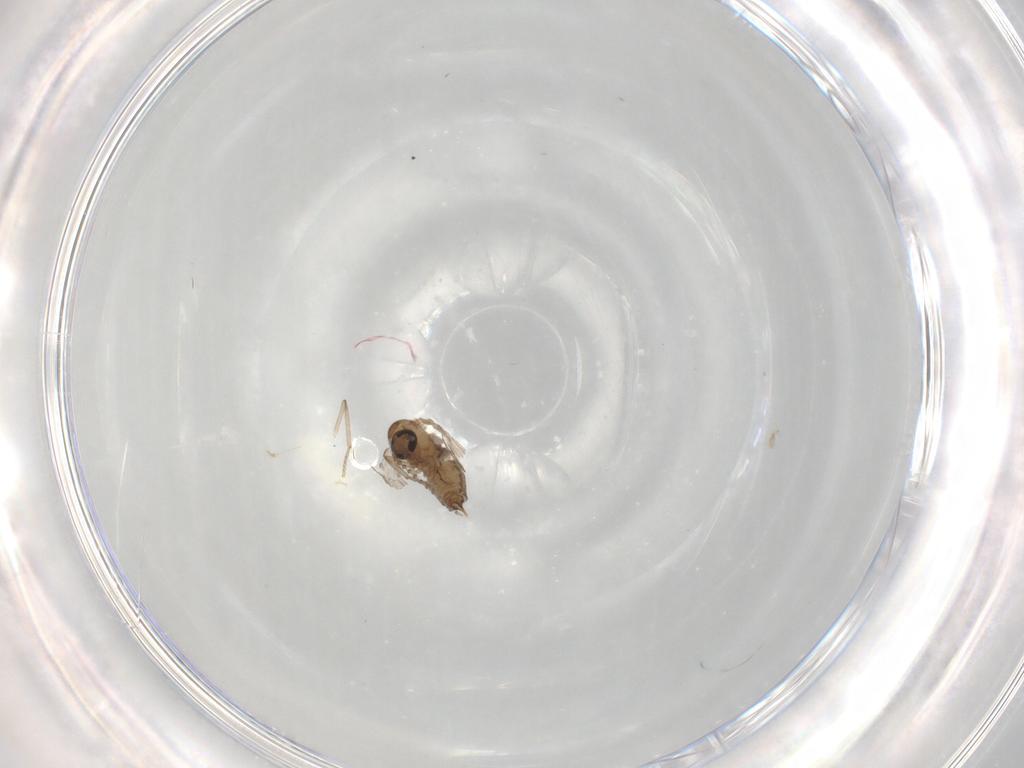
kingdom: Animalia
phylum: Arthropoda
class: Insecta
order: Diptera
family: Psychodidae
